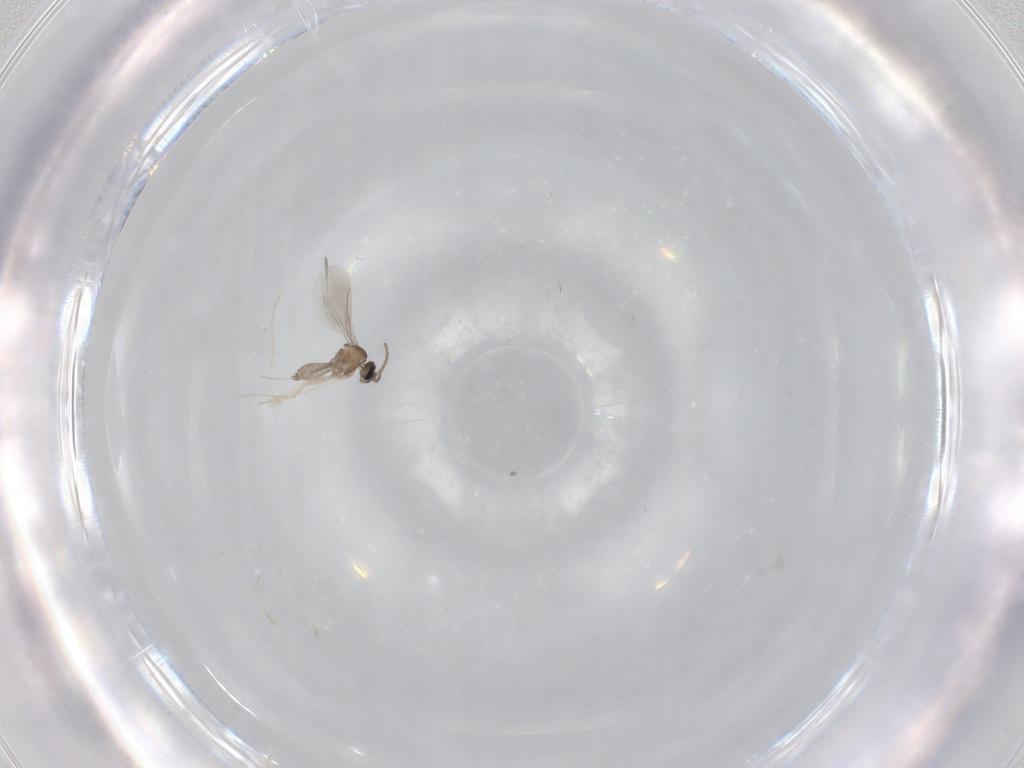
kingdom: Animalia
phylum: Arthropoda
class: Insecta
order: Diptera
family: Cecidomyiidae
